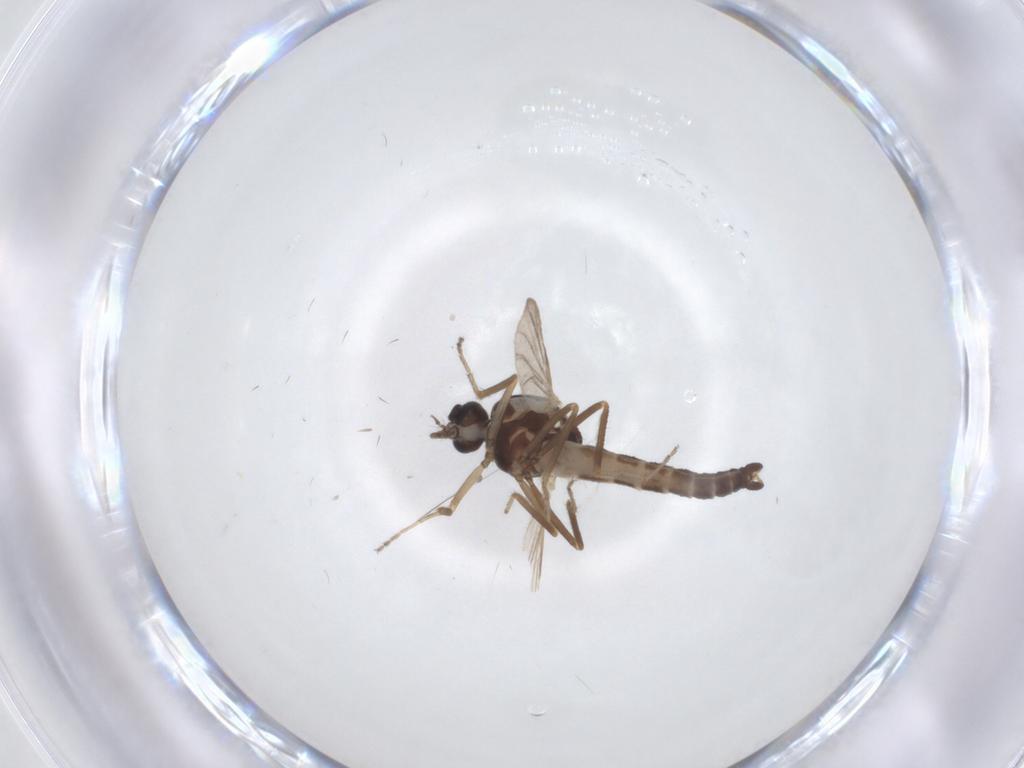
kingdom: Animalia
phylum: Arthropoda
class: Insecta
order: Diptera
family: Ceratopogonidae
